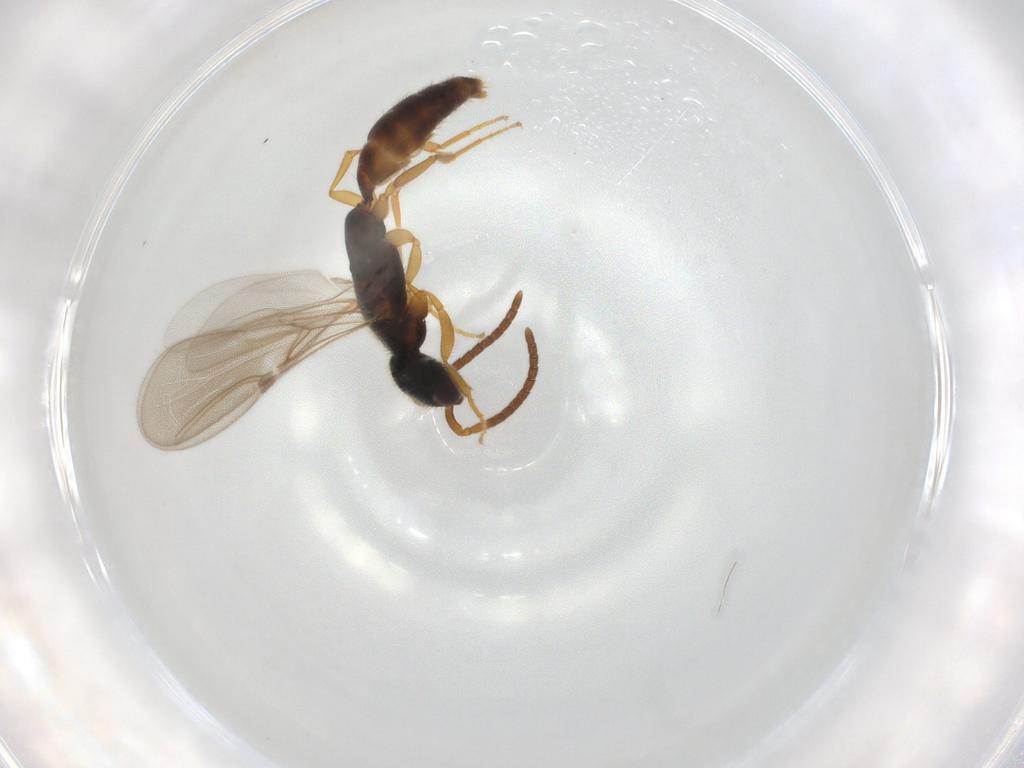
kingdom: Animalia
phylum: Arthropoda
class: Insecta
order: Hymenoptera
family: Bethylidae
